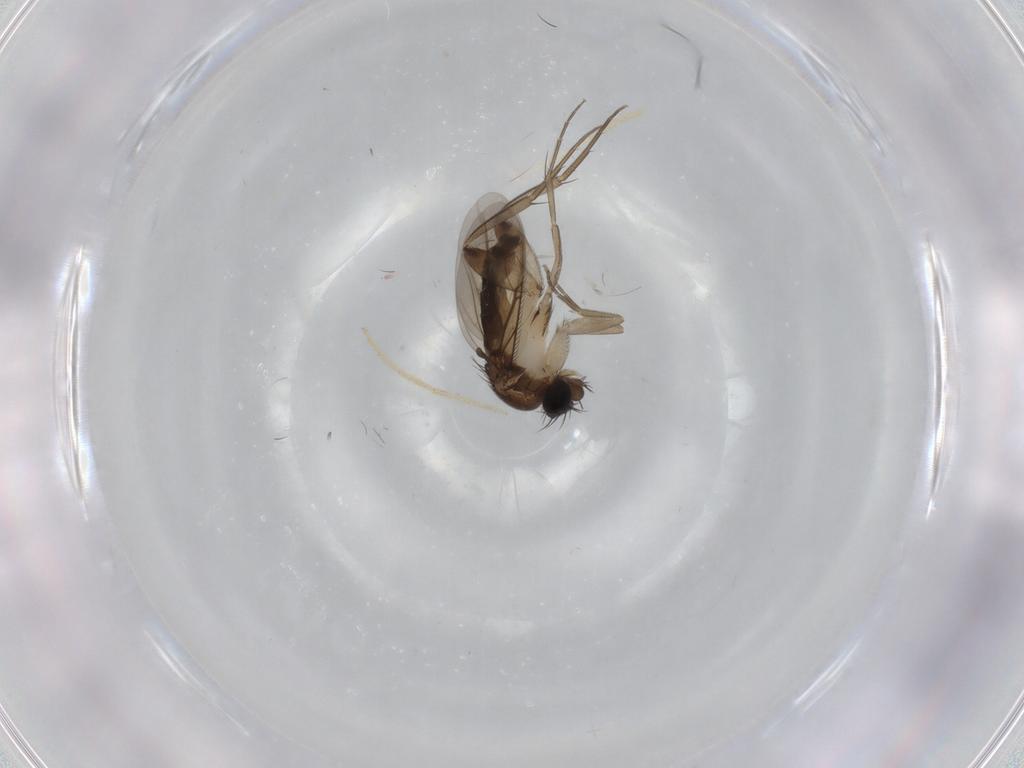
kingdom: Animalia
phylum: Arthropoda
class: Insecta
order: Diptera
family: Phoridae
